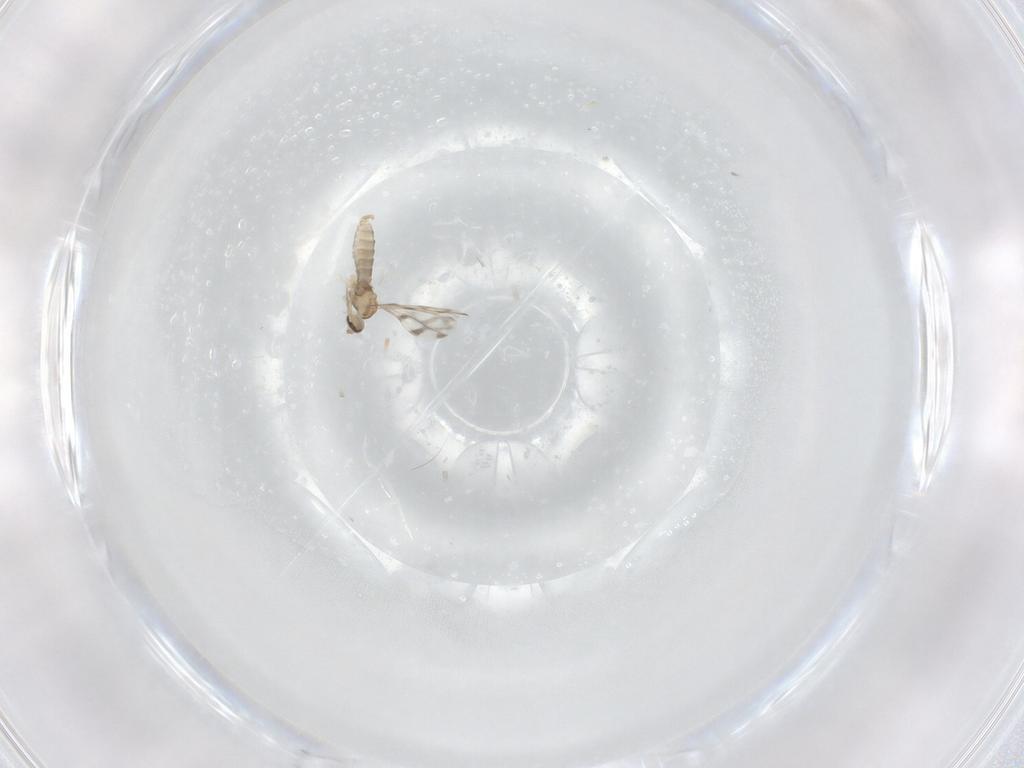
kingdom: Animalia
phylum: Arthropoda
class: Insecta
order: Diptera
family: Cecidomyiidae
